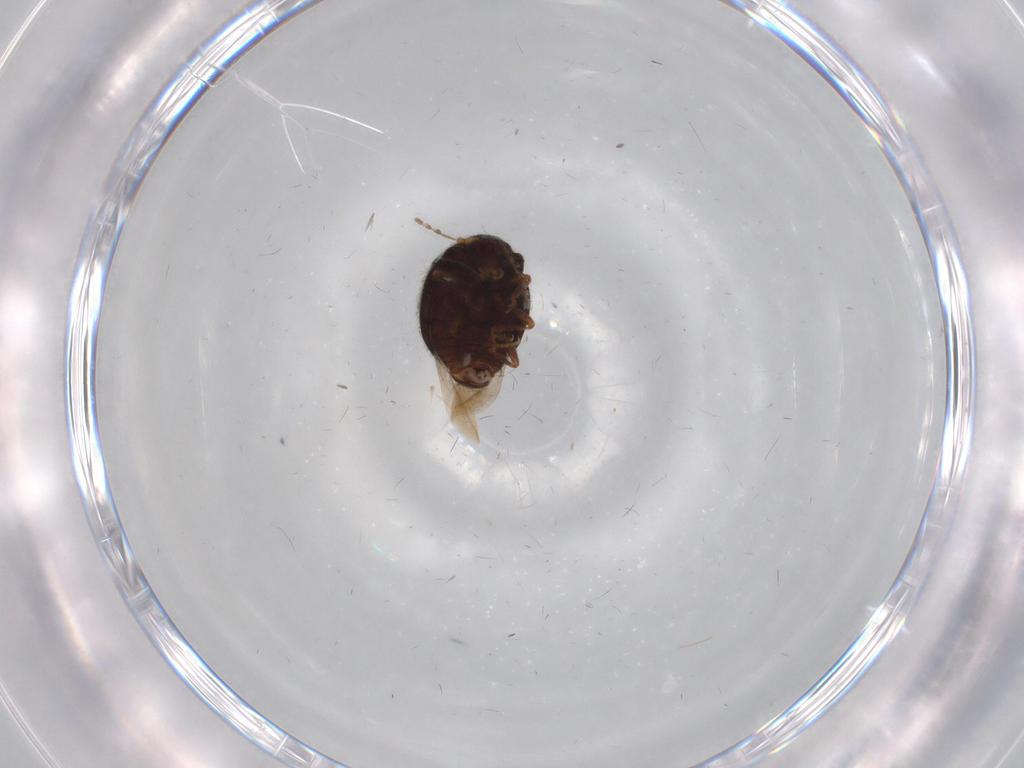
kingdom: Animalia
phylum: Arthropoda
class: Insecta
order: Coleoptera
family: Anamorphidae
